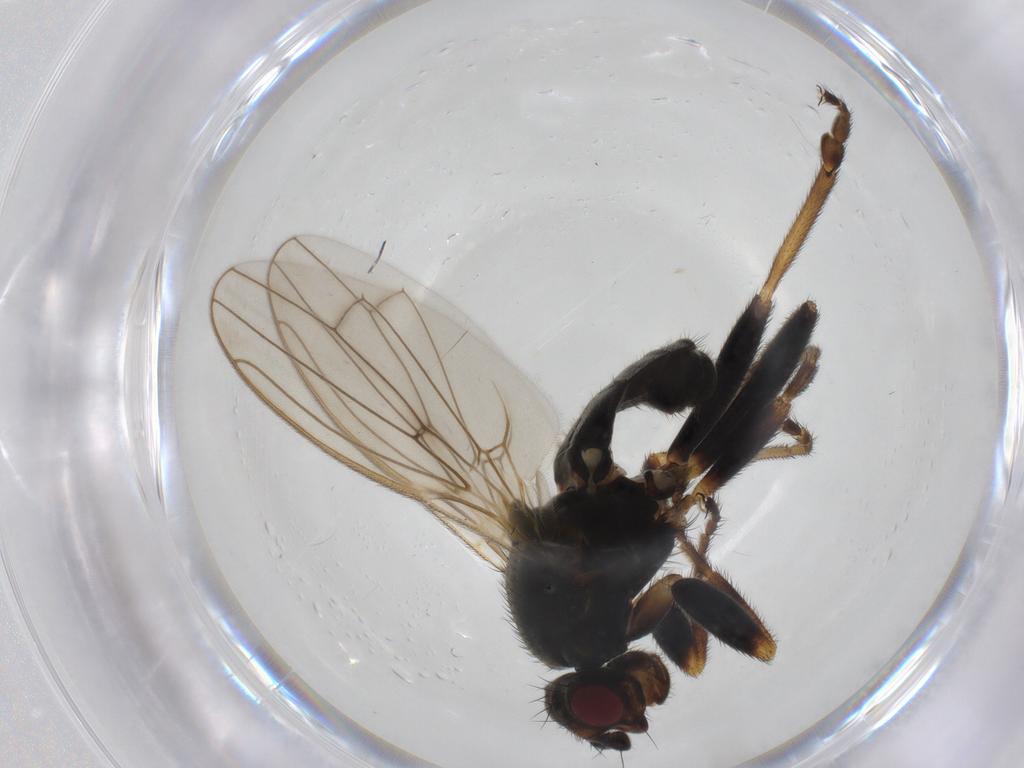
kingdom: Animalia
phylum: Arthropoda
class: Insecta
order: Diptera
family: Sphaeroceridae
